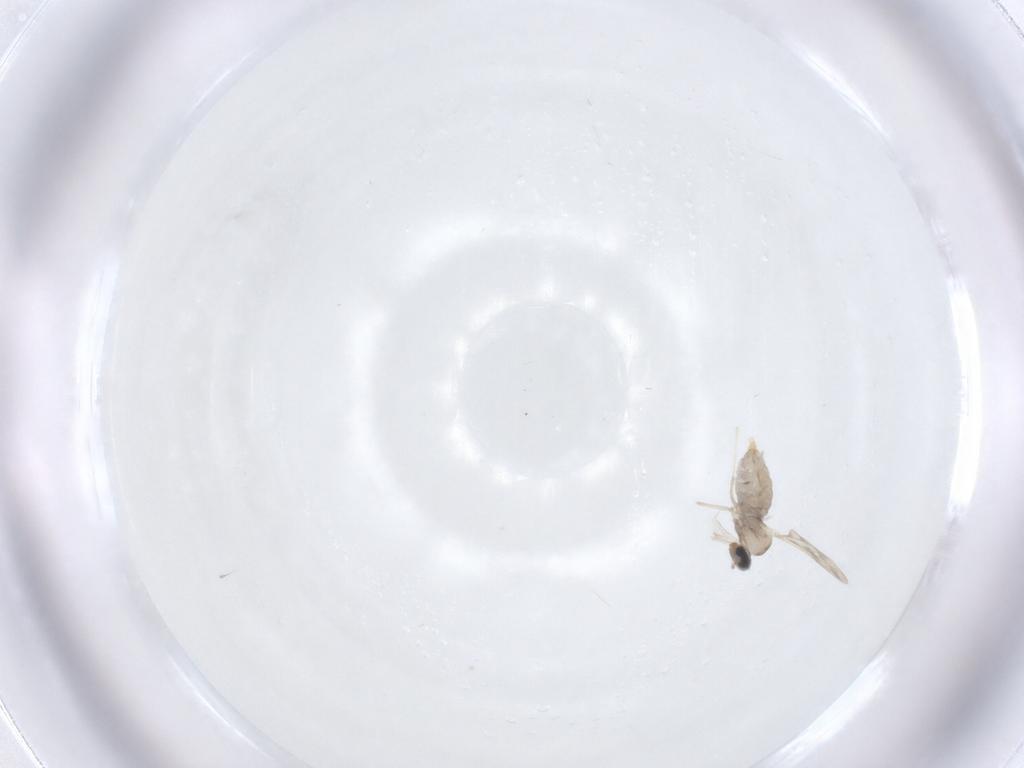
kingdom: Animalia
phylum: Arthropoda
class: Insecta
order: Diptera
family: Cecidomyiidae
